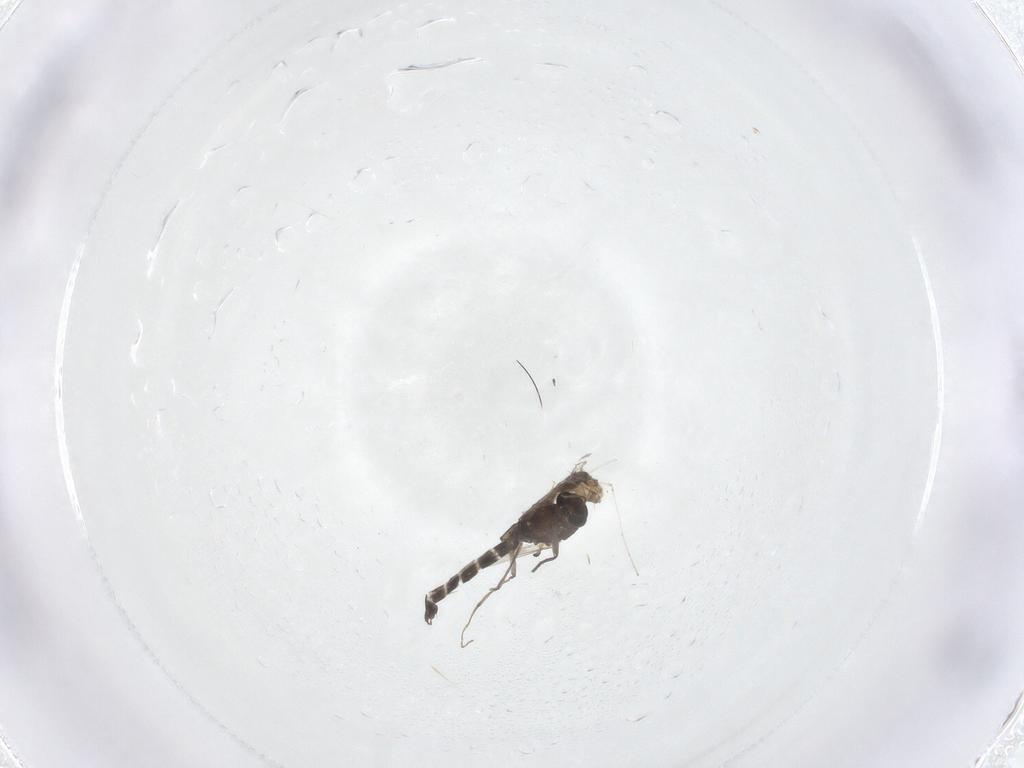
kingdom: Animalia
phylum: Arthropoda
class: Insecta
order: Diptera
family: Chironomidae
